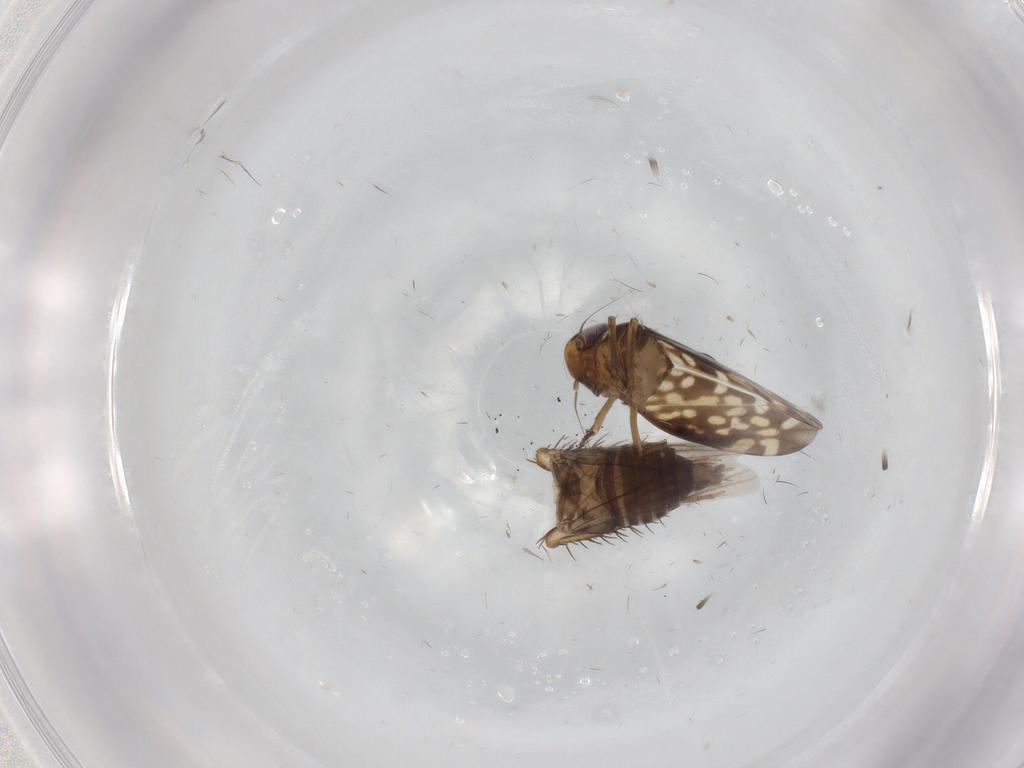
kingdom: Animalia
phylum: Arthropoda
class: Insecta
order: Hemiptera
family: Cicadellidae
